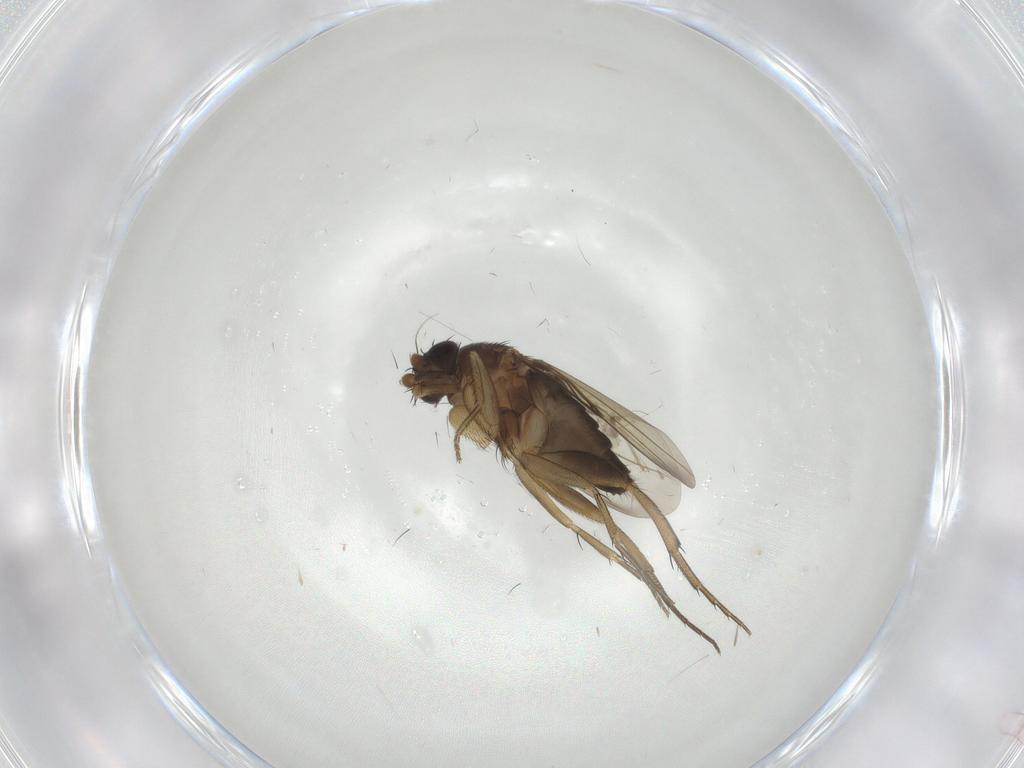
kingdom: Animalia
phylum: Arthropoda
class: Insecta
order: Diptera
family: Phoridae
